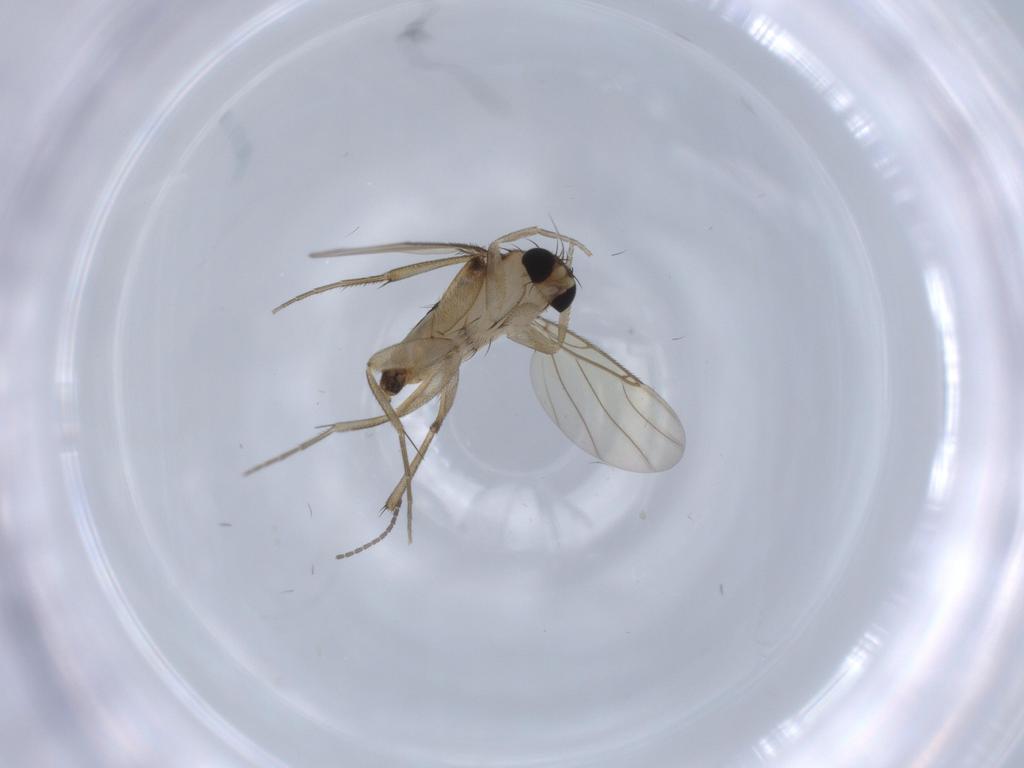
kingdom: Animalia
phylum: Arthropoda
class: Insecta
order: Diptera
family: Phoridae
